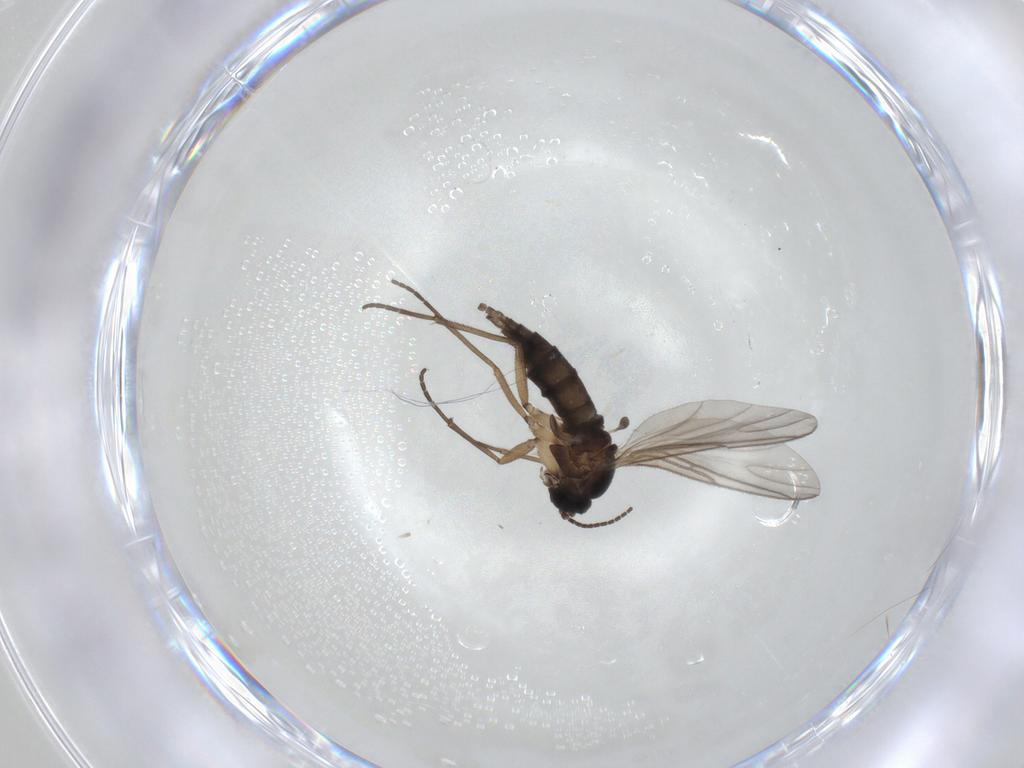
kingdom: Animalia
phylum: Arthropoda
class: Insecta
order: Diptera
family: Sciaridae
